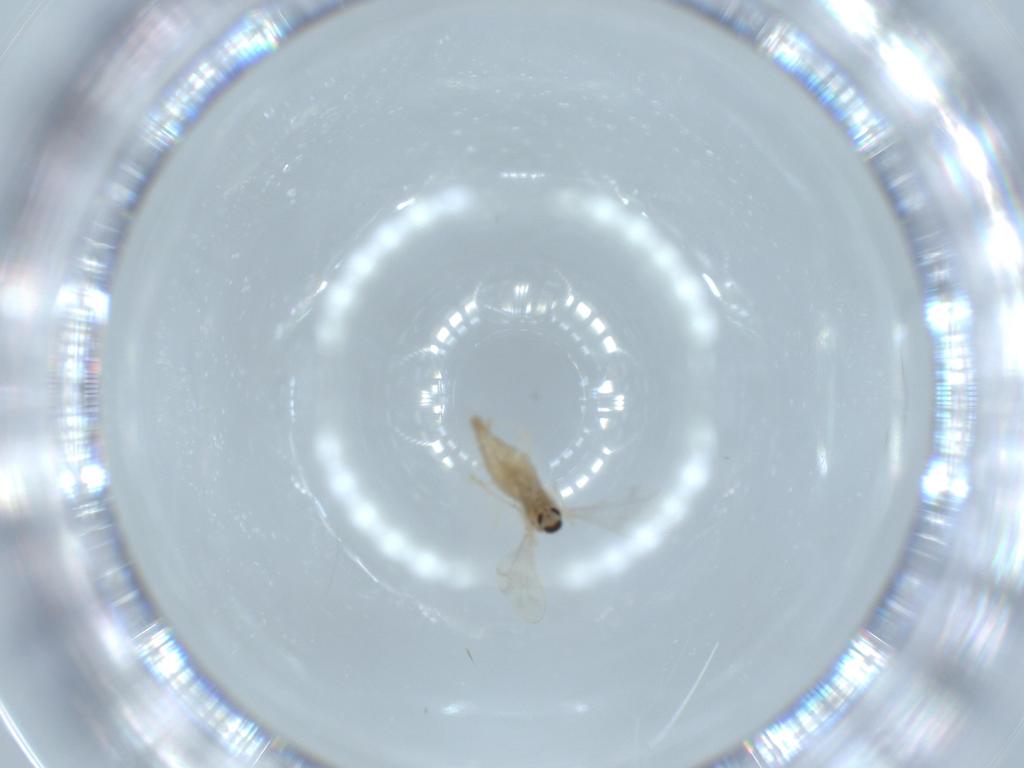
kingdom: Animalia
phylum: Arthropoda
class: Insecta
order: Diptera
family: Cecidomyiidae
